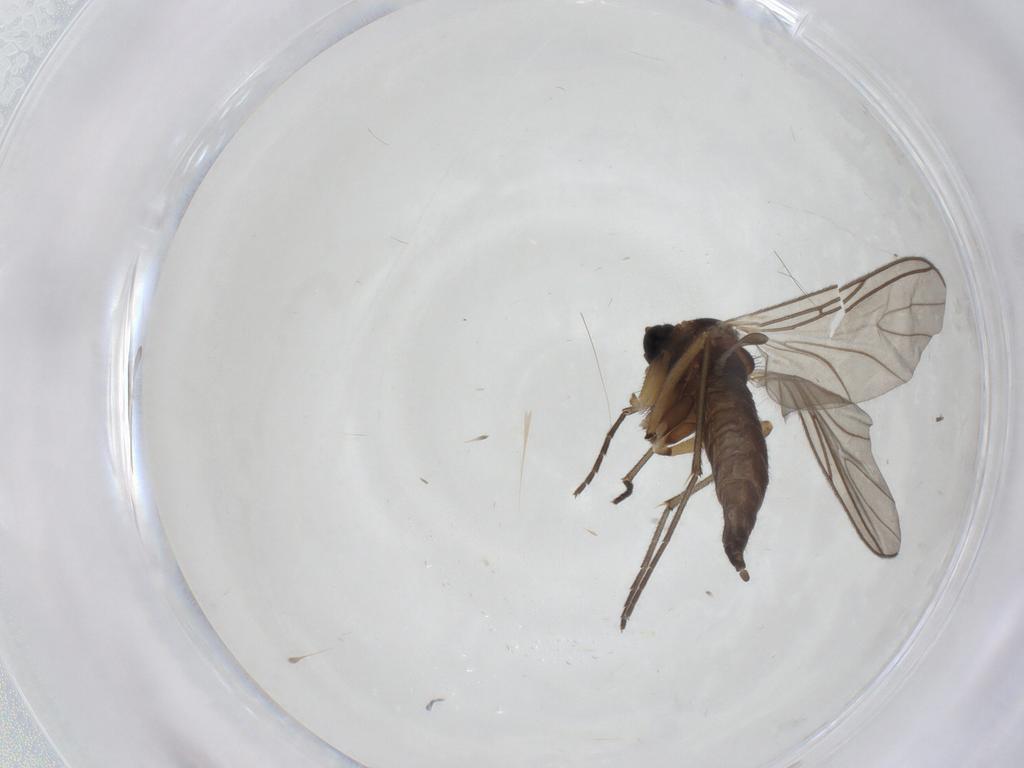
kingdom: Animalia
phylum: Arthropoda
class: Insecta
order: Diptera
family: Sciaridae
